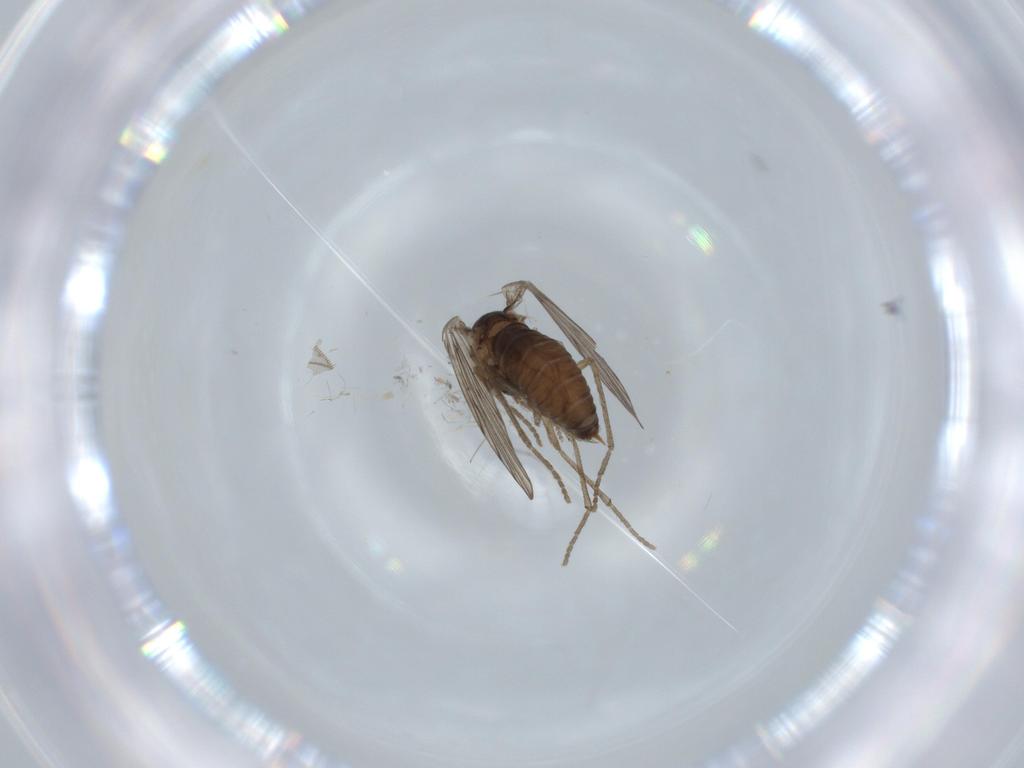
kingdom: Animalia
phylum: Arthropoda
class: Insecta
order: Diptera
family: Psychodidae
